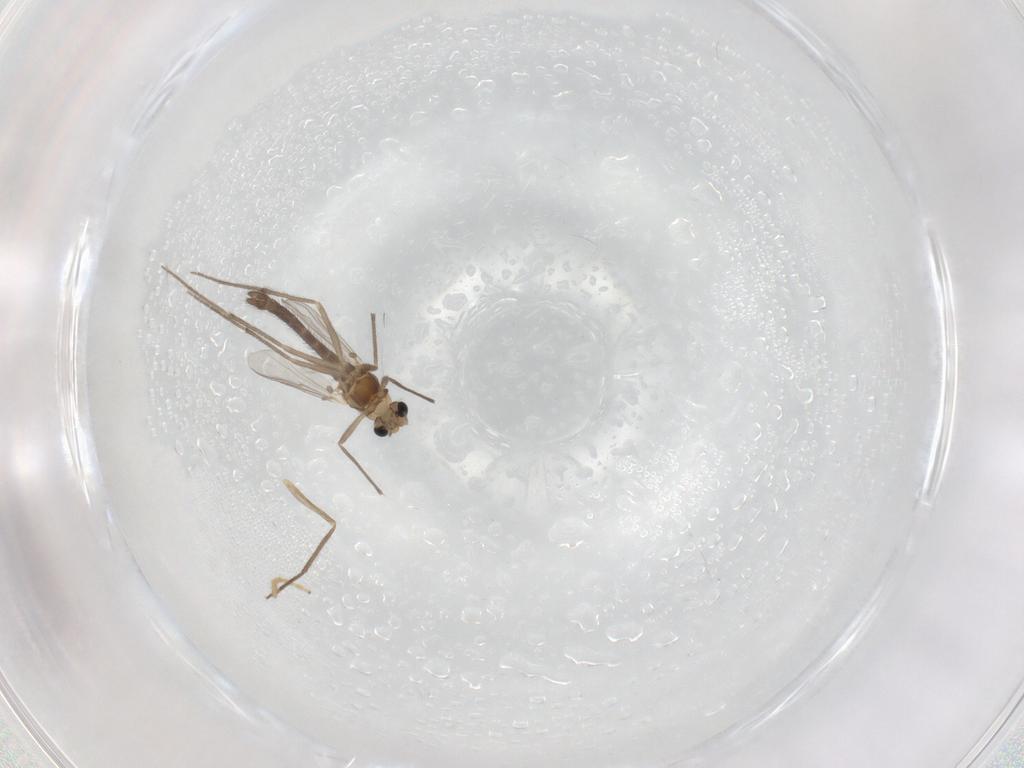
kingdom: Animalia
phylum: Arthropoda
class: Insecta
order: Diptera
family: Chironomidae
